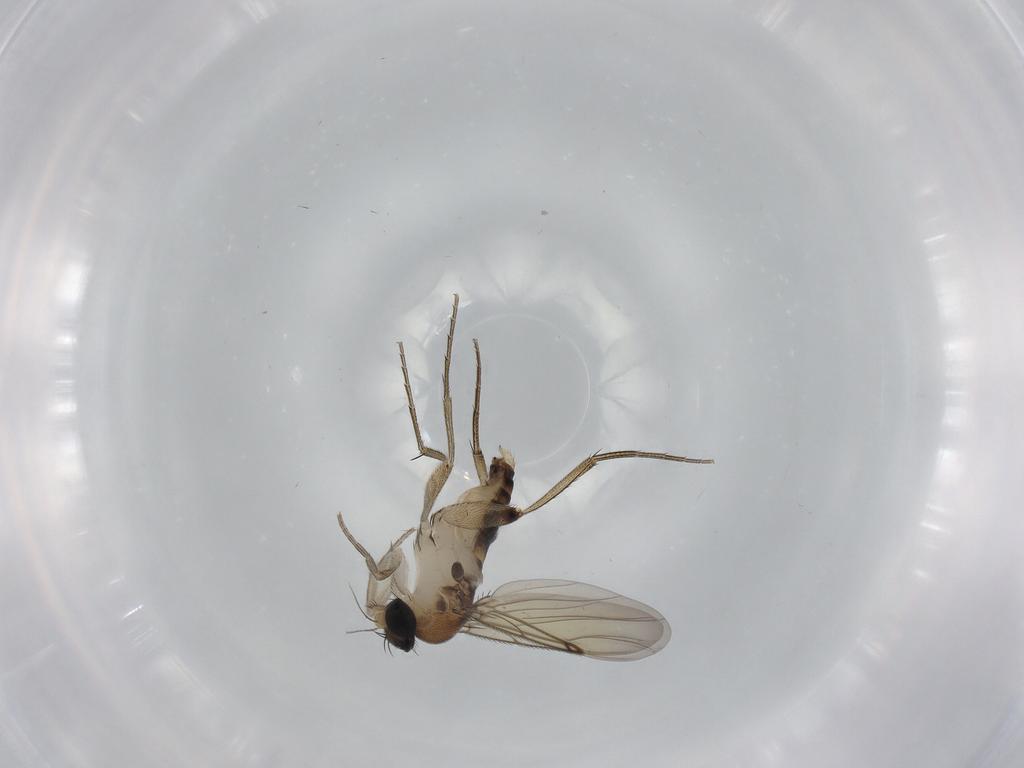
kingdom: Animalia
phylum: Arthropoda
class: Insecta
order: Diptera
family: Phoridae
